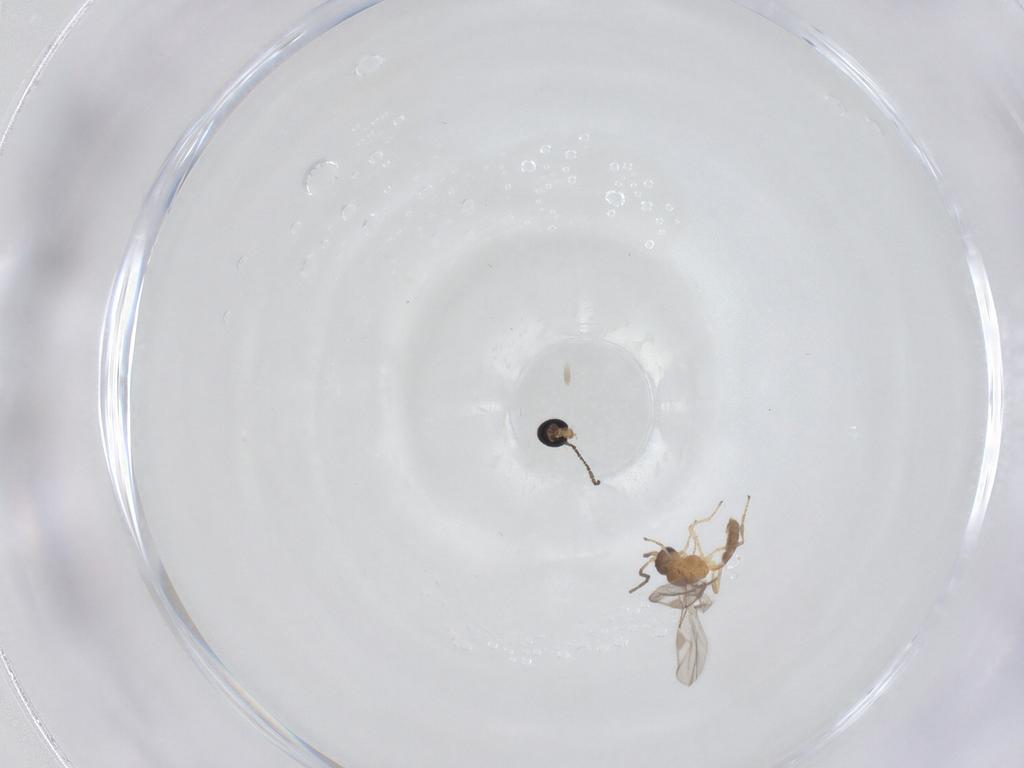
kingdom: Animalia
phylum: Arthropoda
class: Insecta
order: Diptera
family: Cecidomyiidae
